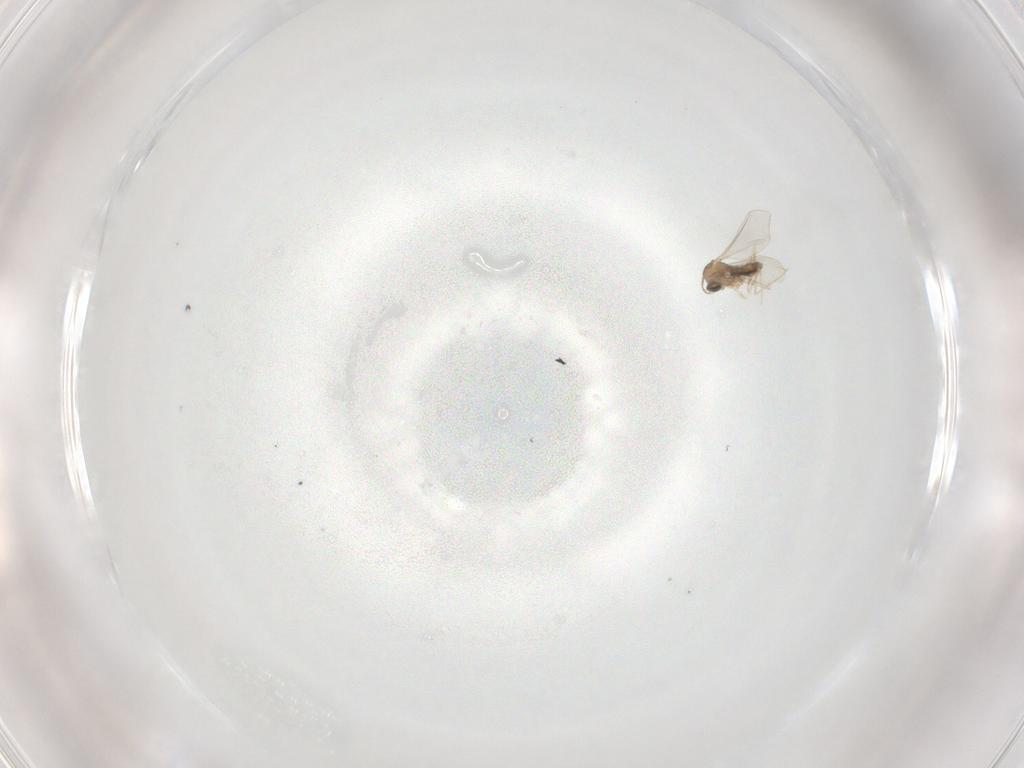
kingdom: Animalia
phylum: Arthropoda
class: Insecta
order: Diptera
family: Cecidomyiidae
